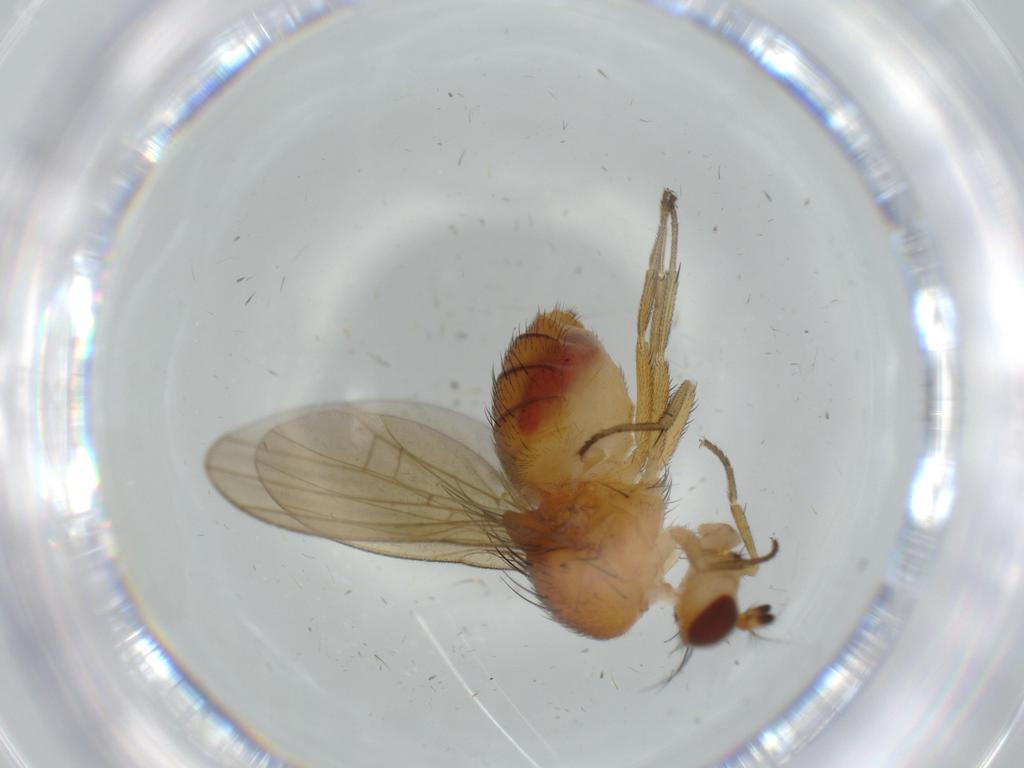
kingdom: Animalia
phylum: Arthropoda
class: Insecta
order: Diptera
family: Lauxaniidae
